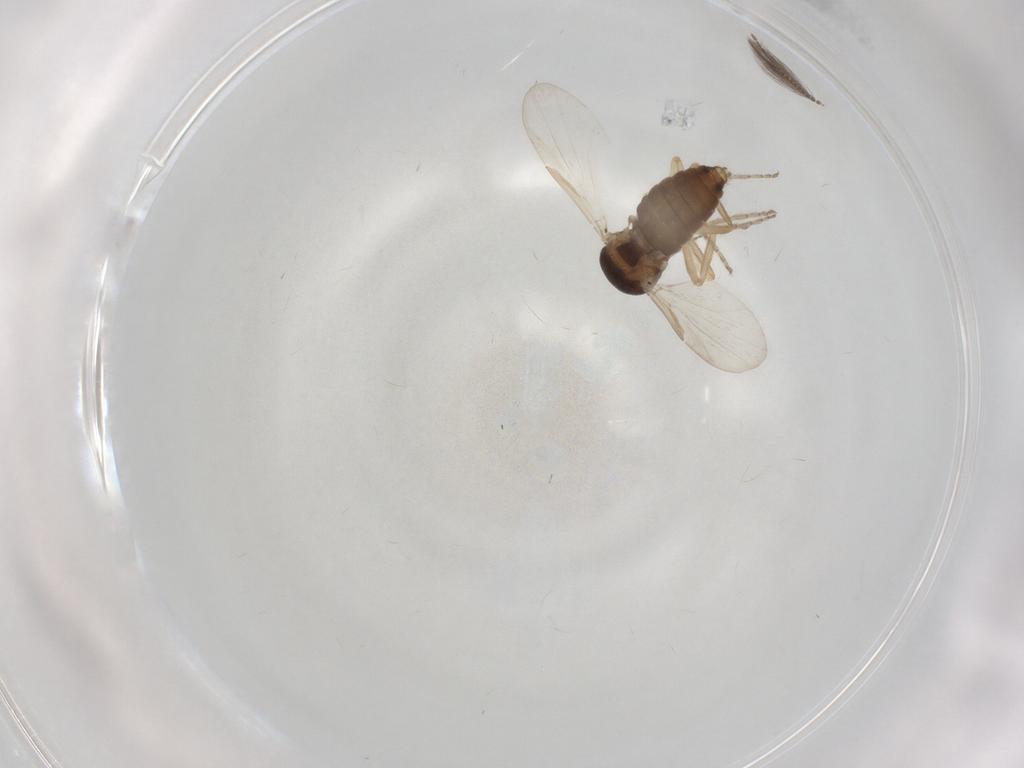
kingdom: Animalia
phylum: Arthropoda
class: Insecta
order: Diptera
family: Ceratopogonidae
